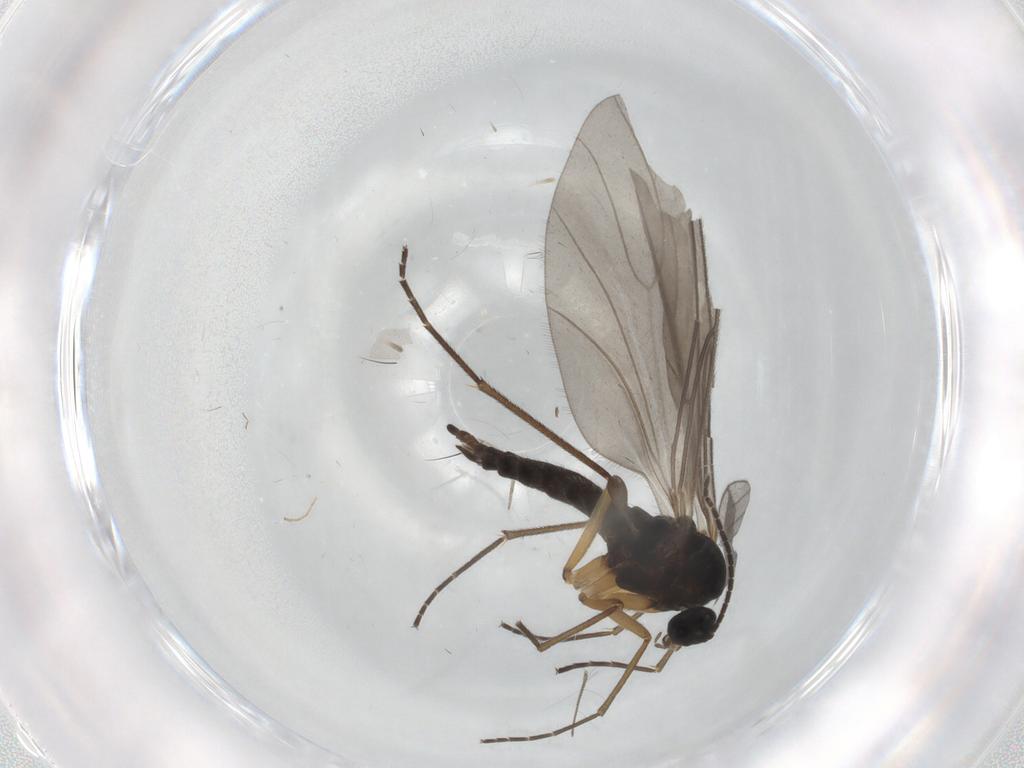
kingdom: Animalia
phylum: Arthropoda
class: Insecta
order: Diptera
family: Sciaridae
